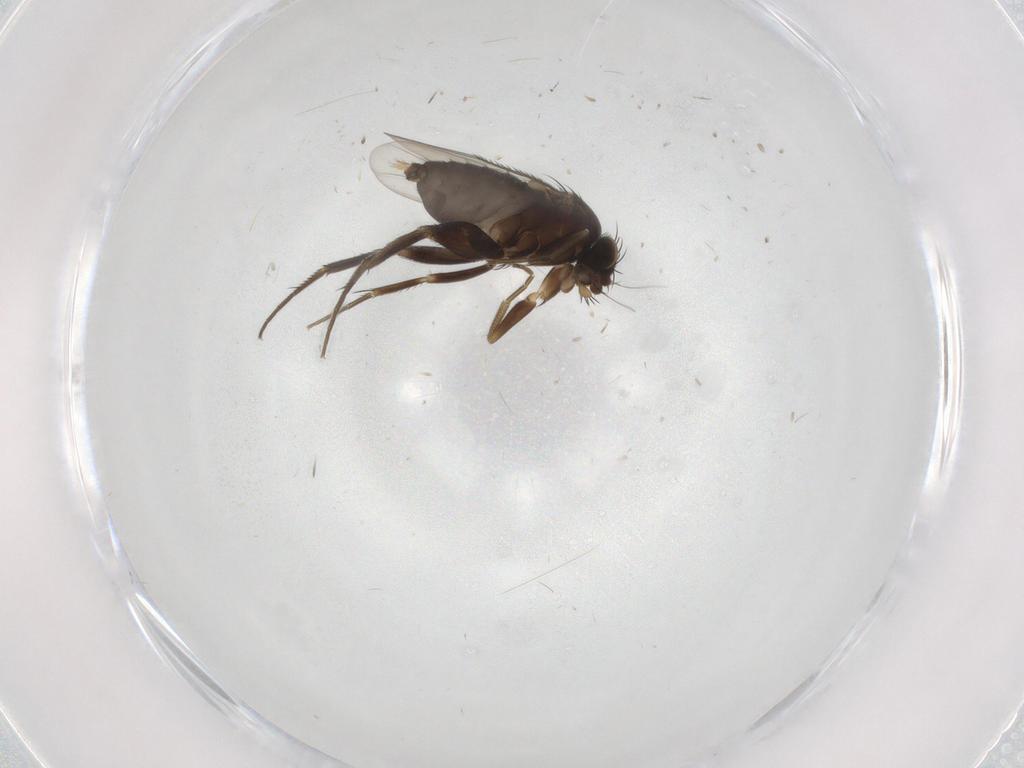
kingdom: Animalia
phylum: Arthropoda
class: Insecta
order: Diptera
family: Phoridae
